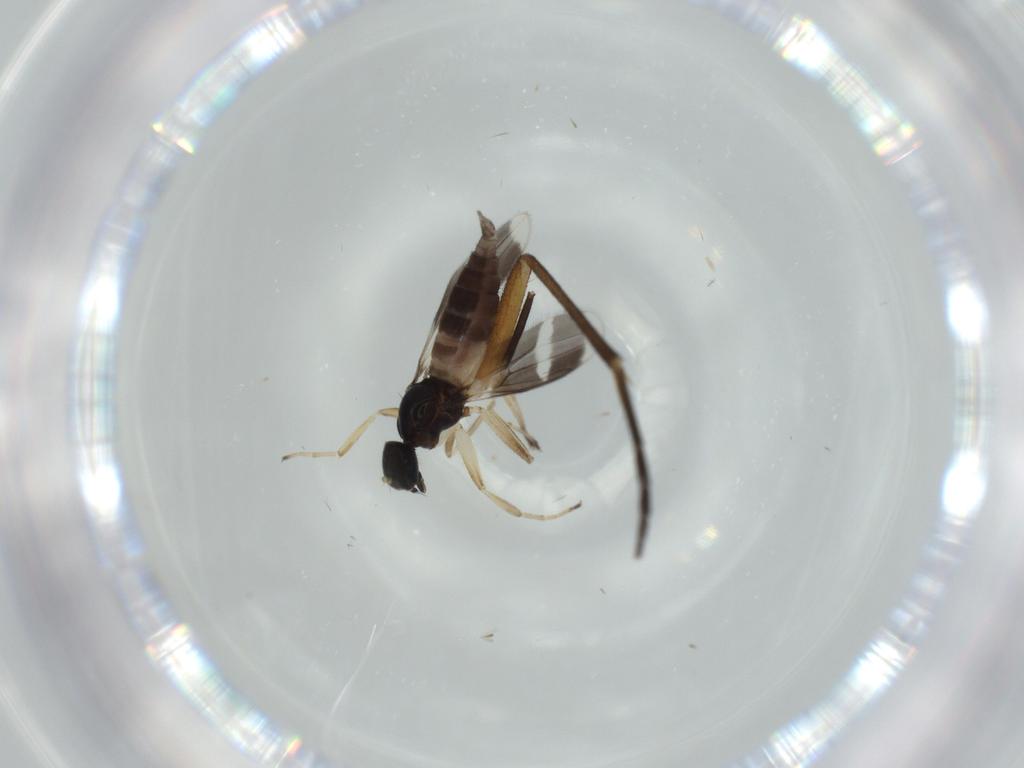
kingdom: Animalia
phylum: Arthropoda
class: Insecta
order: Diptera
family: Hybotidae
